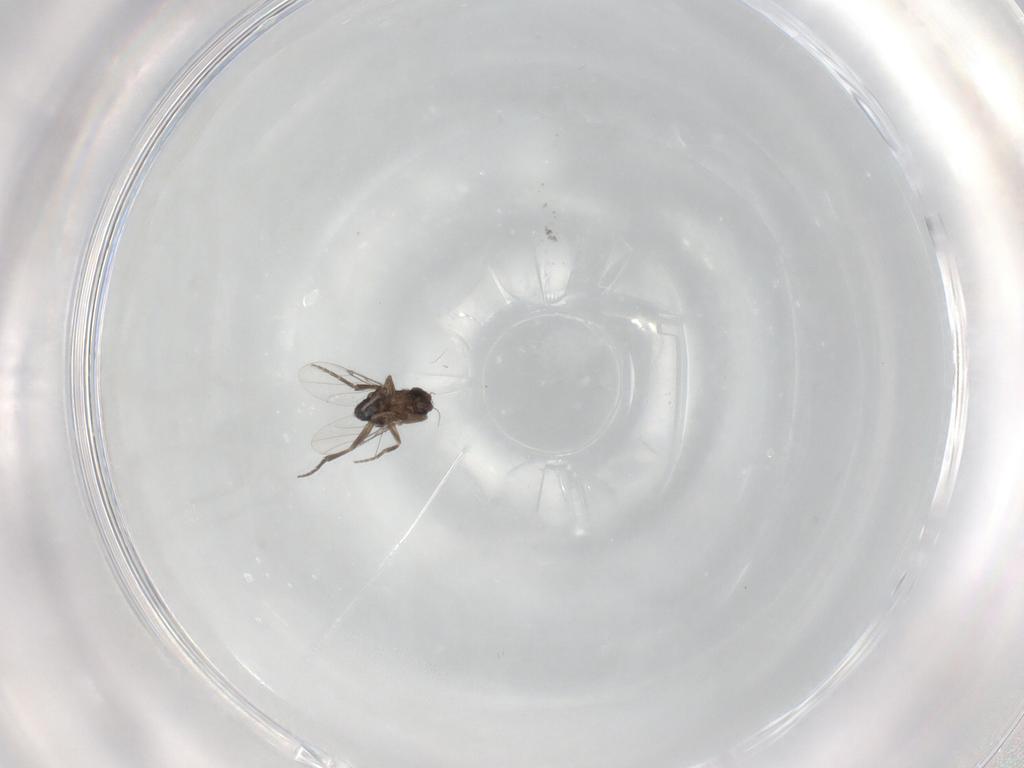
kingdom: Animalia
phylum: Arthropoda
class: Insecta
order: Diptera
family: Phoridae
